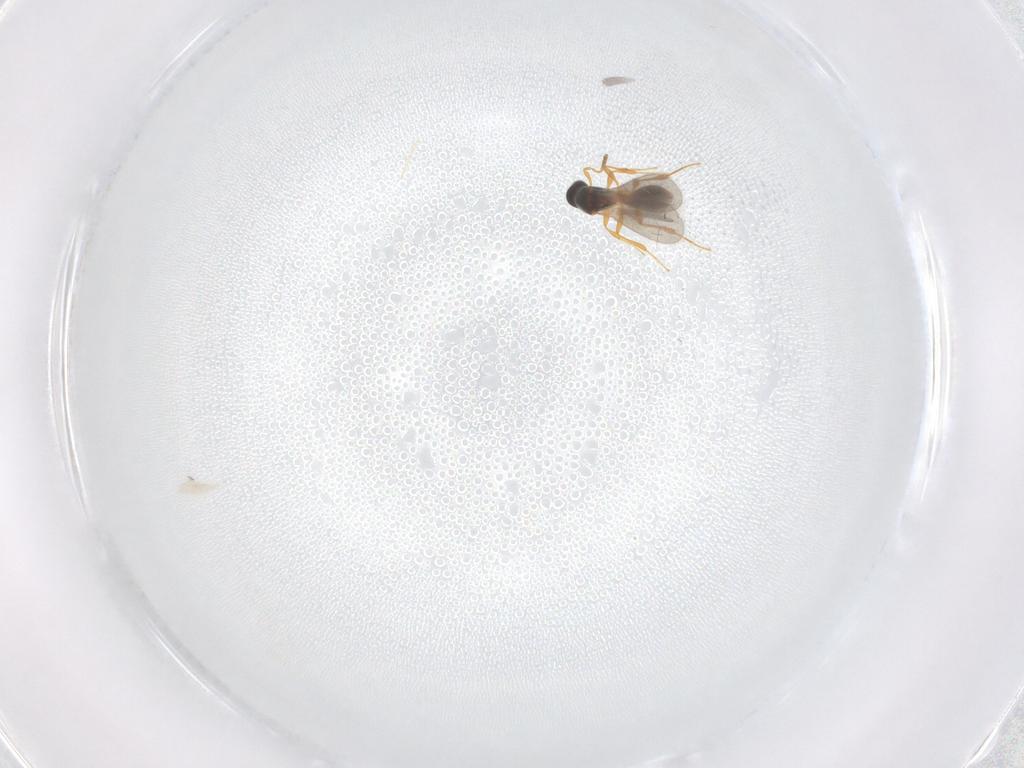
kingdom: Animalia
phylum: Arthropoda
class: Insecta
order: Hymenoptera
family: Platygastridae
